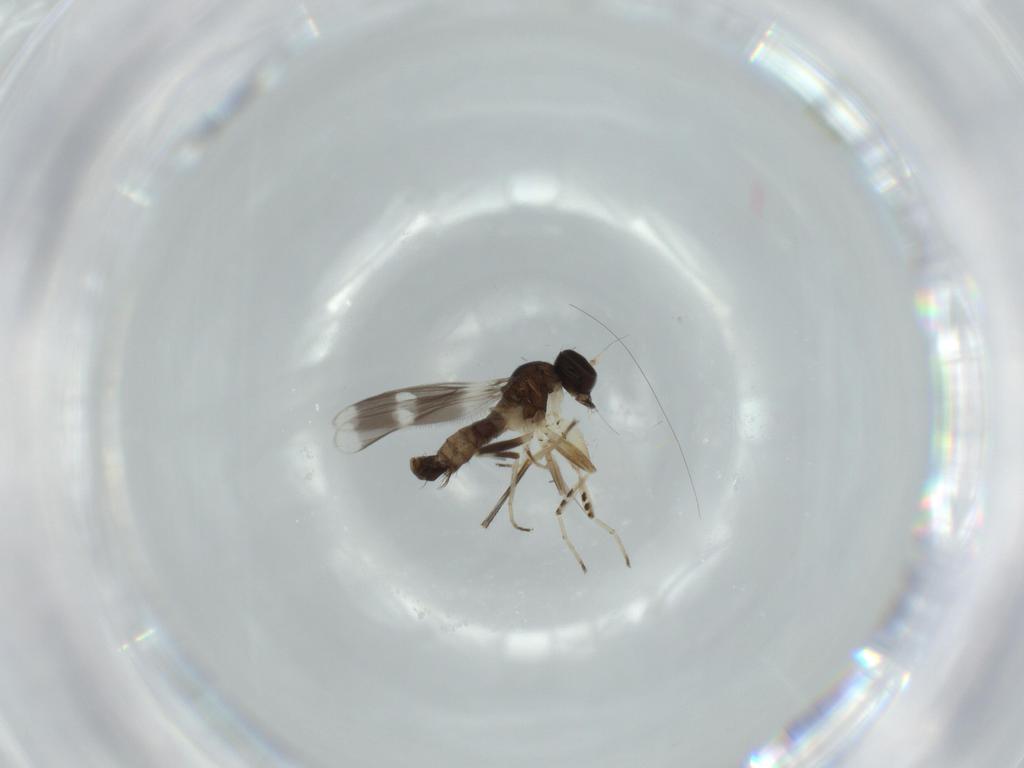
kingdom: Animalia
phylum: Arthropoda
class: Insecta
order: Diptera
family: Hybotidae
